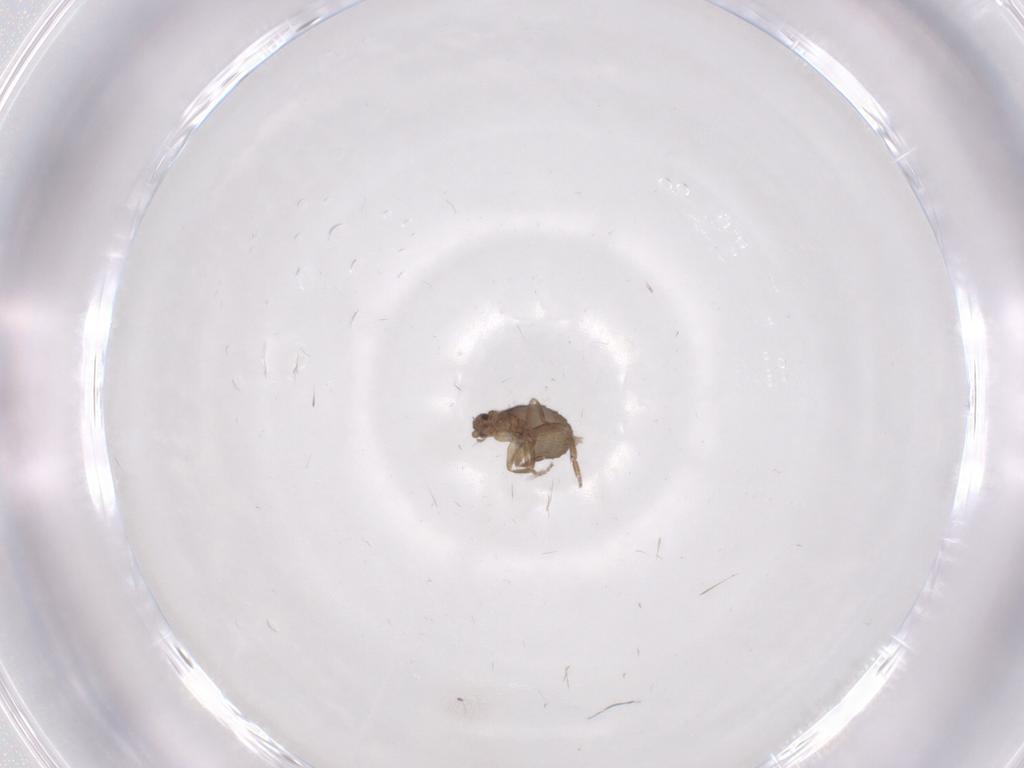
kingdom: Animalia
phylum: Arthropoda
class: Insecta
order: Diptera
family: Phoridae
